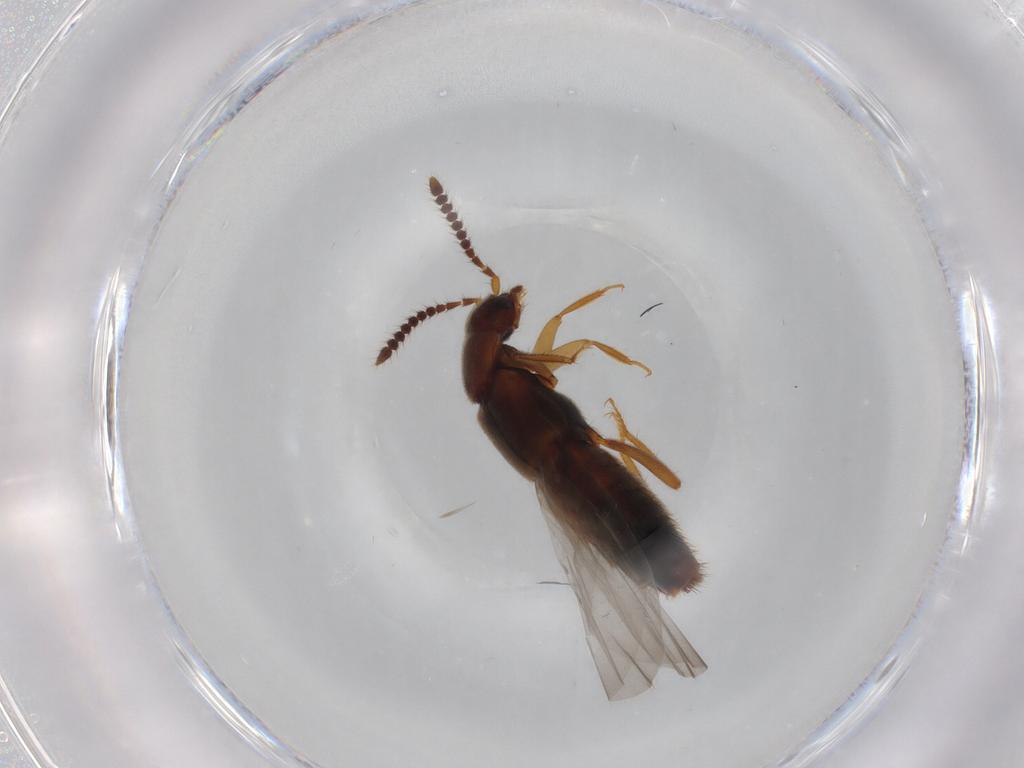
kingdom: Animalia
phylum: Arthropoda
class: Insecta
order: Coleoptera
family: Staphylinidae
